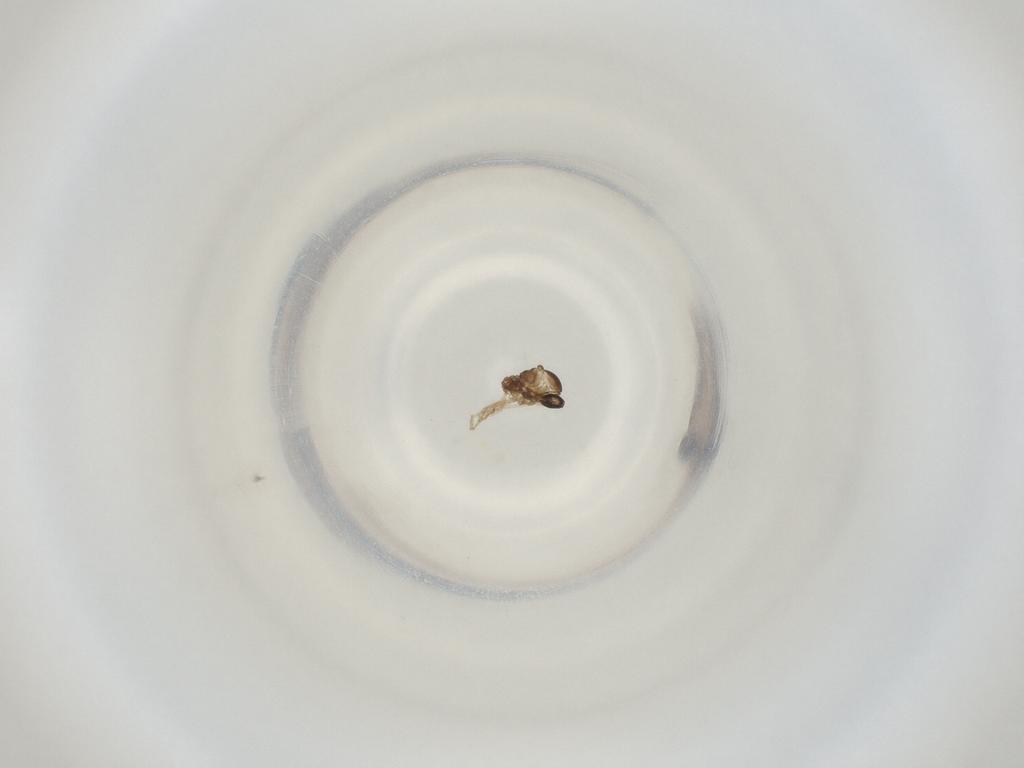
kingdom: Animalia
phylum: Arthropoda
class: Insecta
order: Diptera
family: Cecidomyiidae
